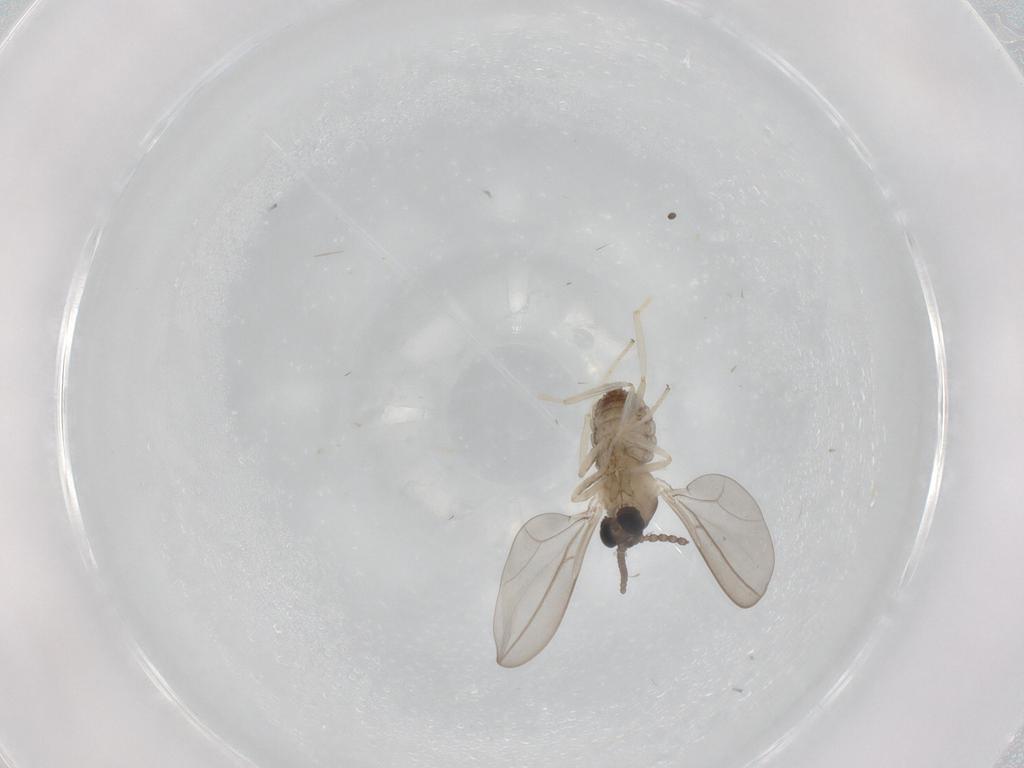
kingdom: Animalia
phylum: Arthropoda
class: Insecta
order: Diptera
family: Cecidomyiidae
